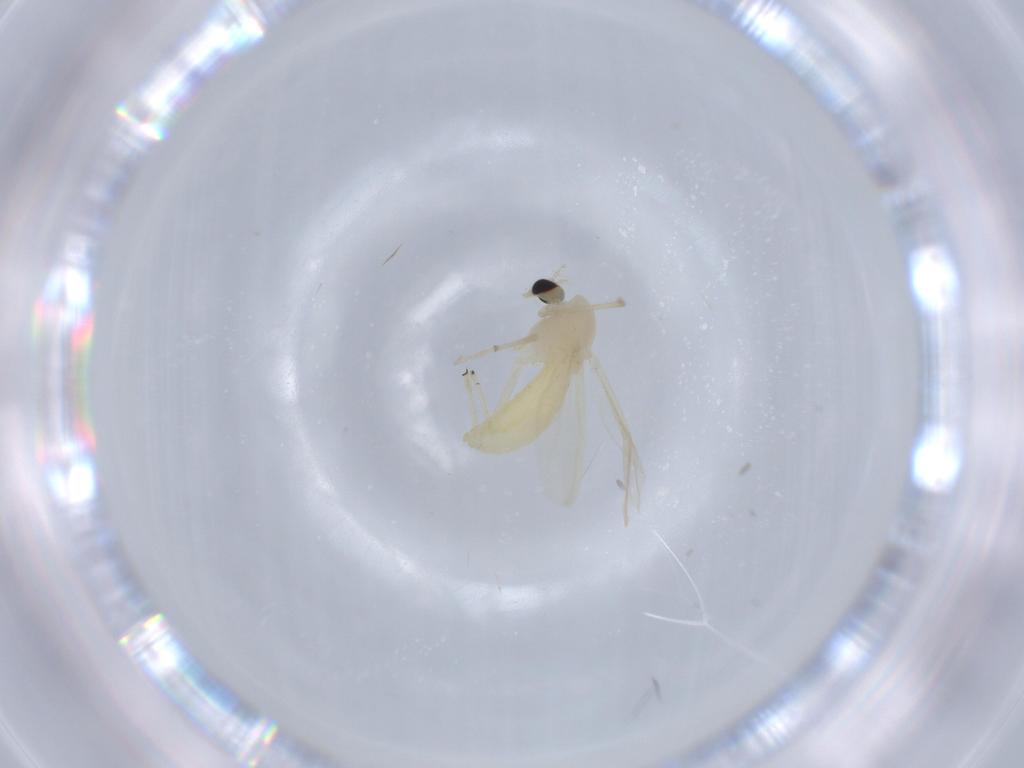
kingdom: Animalia
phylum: Arthropoda
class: Insecta
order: Diptera
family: Chironomidae
